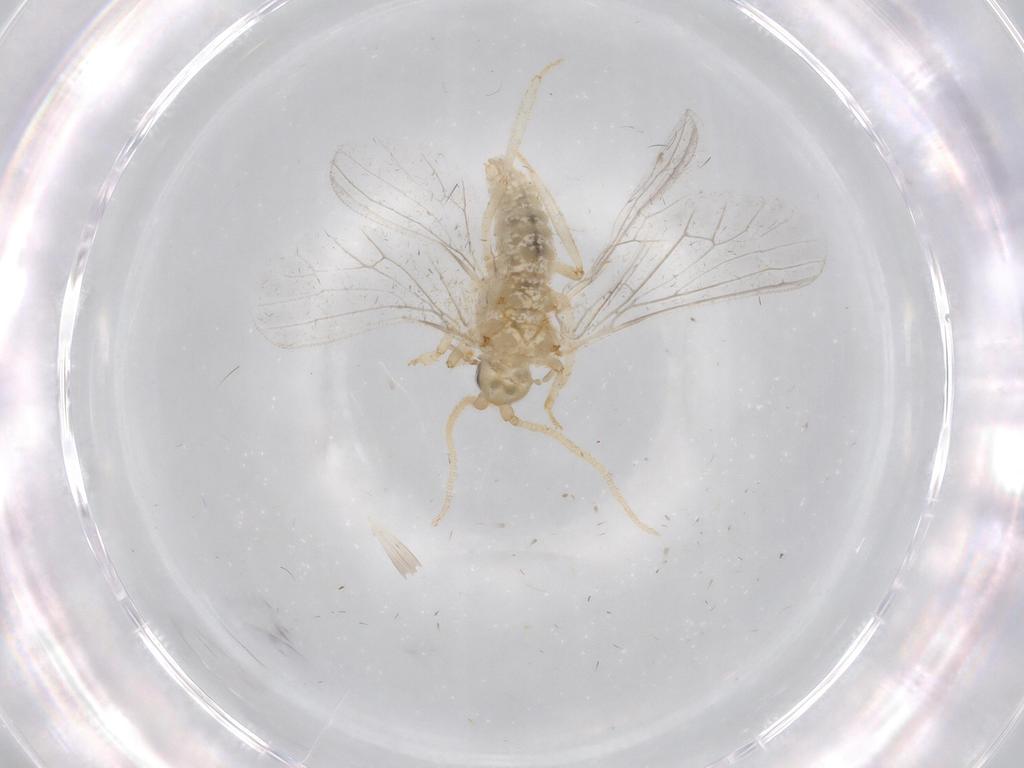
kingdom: Animalia
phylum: Arthropoda
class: Insecta
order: Neuroptera
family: Coniopterygidae
